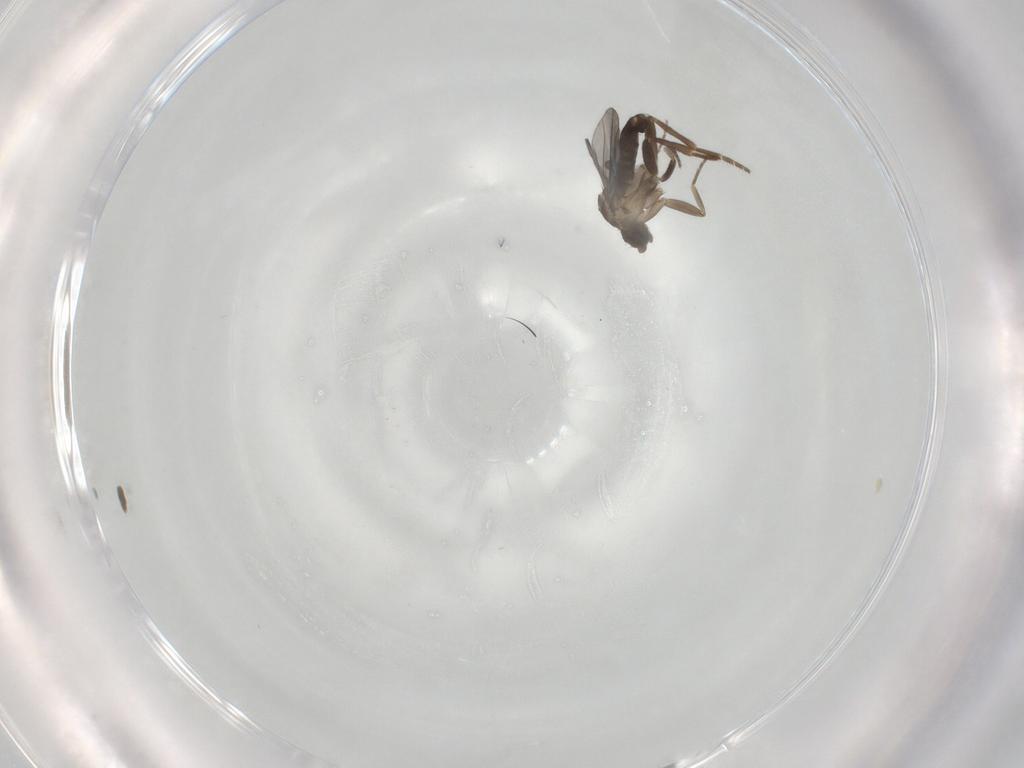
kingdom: Animalia
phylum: Arthropoda
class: Insecta
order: Diptera
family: Phoridae
